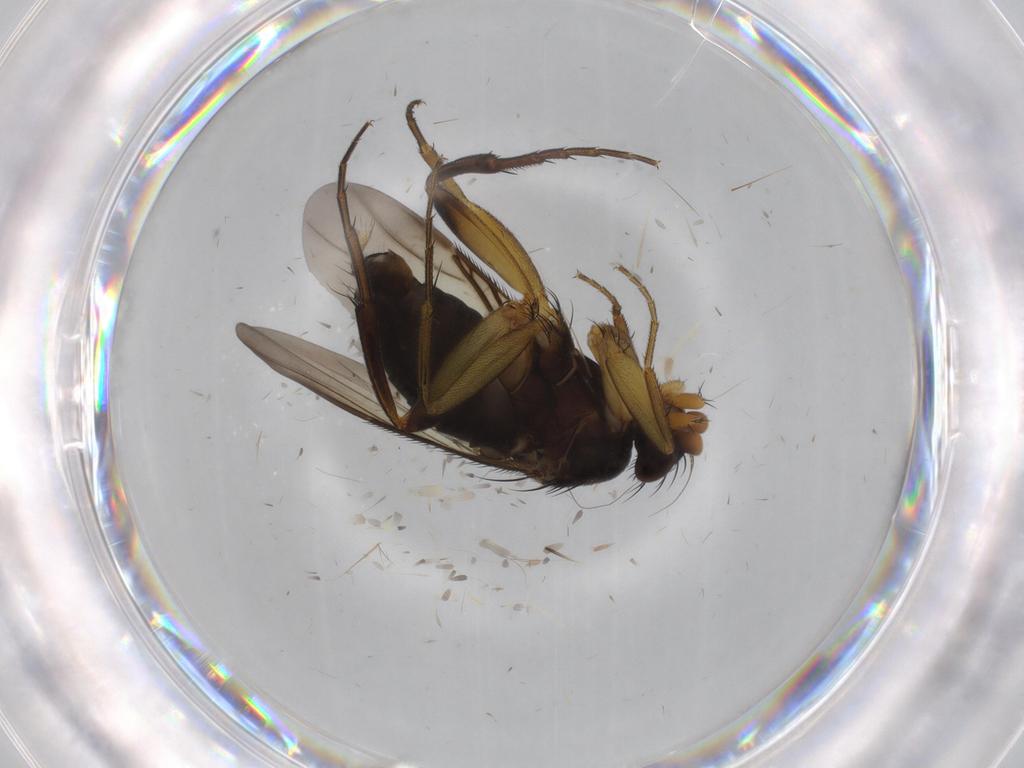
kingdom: Animalia
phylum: Arthropoda
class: Insecta
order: Diptera
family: Phoridae
